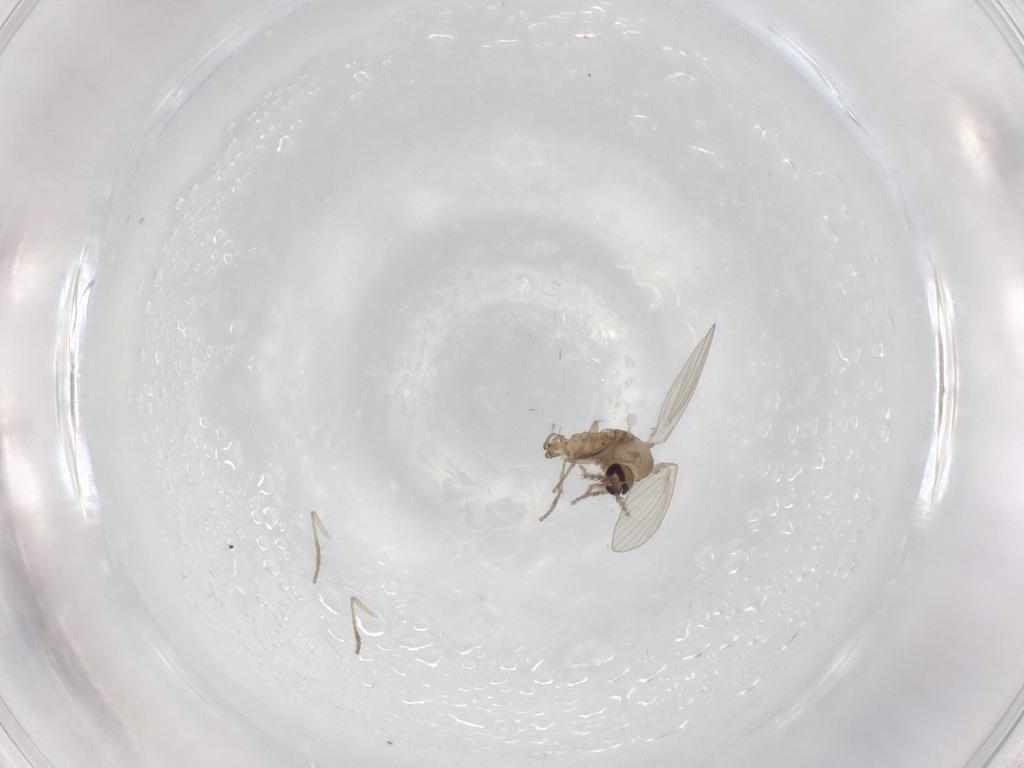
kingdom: Animalia
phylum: Arthropoda
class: Insecta
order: Diptera
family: Psychodidae
